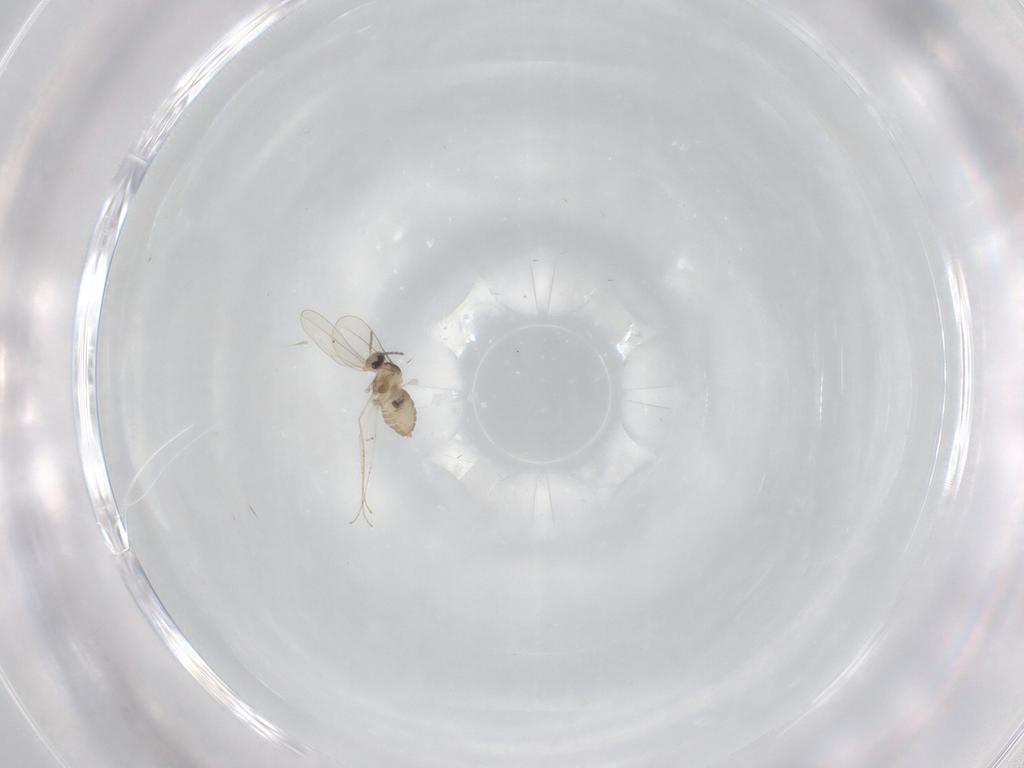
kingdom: Animalia
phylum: Arthropoda
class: Insecta
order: Diptera
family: Cecidomyiidae
